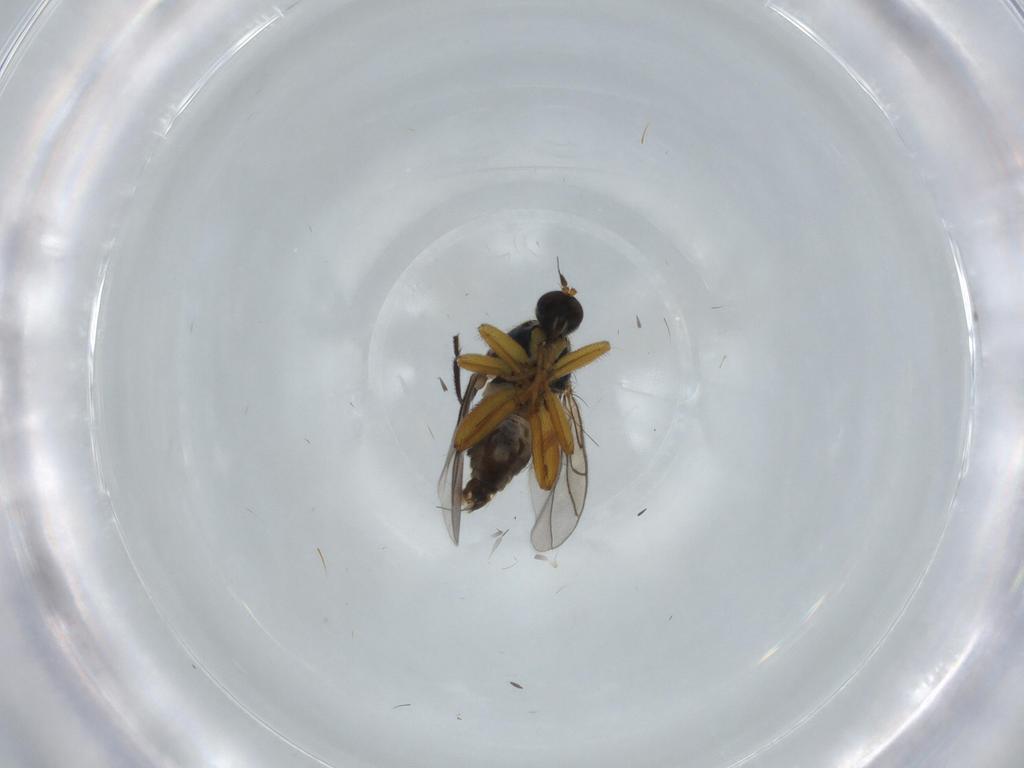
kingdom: Animalia
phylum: Arthropoda
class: Insecta
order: Diptera
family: Hybotidae
